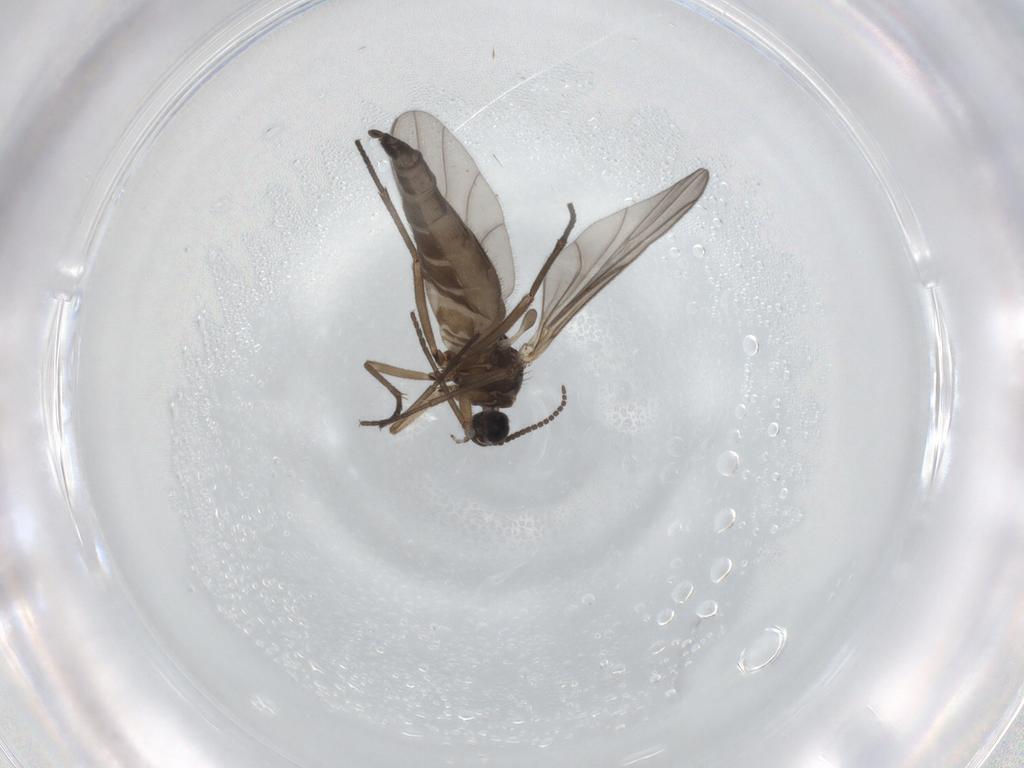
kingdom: Animalia
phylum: Arthropoda
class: Insecta
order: Diptera
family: Sciaridae
